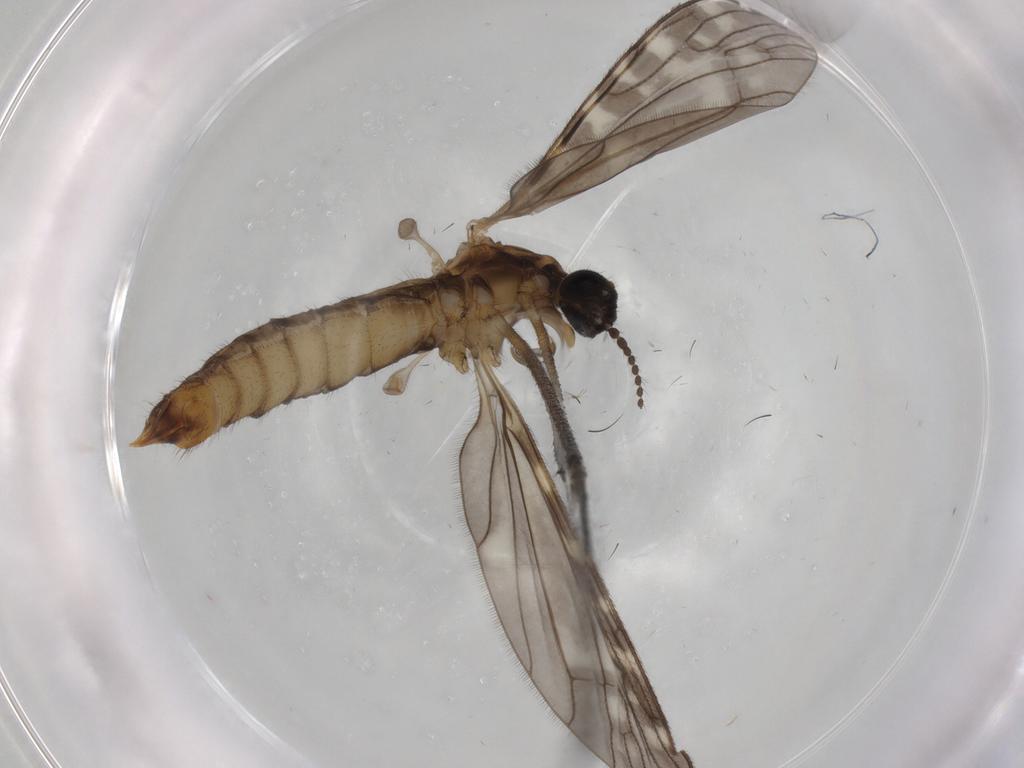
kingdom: Animalia
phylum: Arthropoda
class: Insecta
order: Diptera
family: Limoniidae
